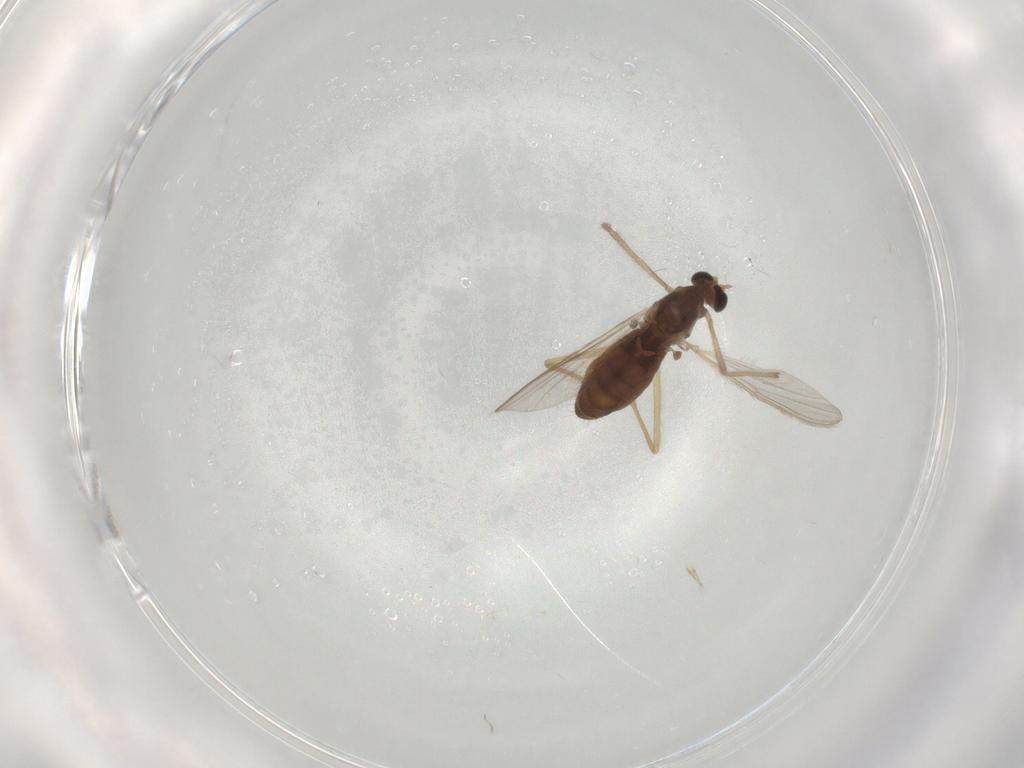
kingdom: Animalia
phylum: Arthropoda
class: Insecta
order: Diptera
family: Chironomidae
